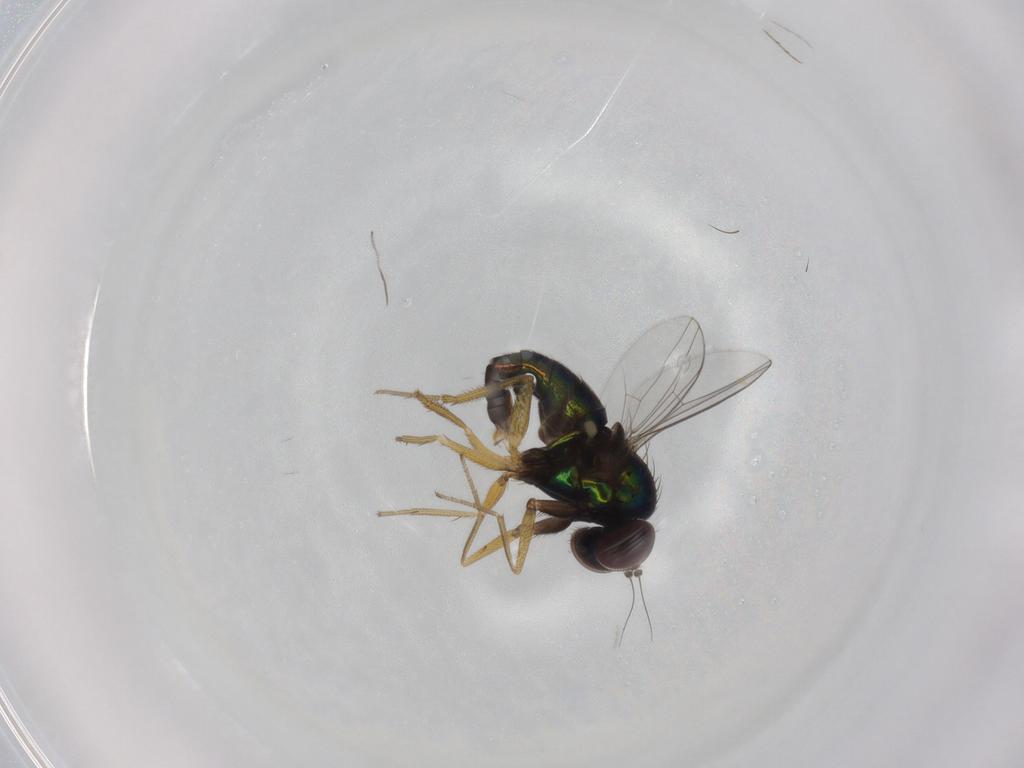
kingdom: Animalia
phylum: Arthropoda
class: Insecta
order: Diptera
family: Dolichopodidae
